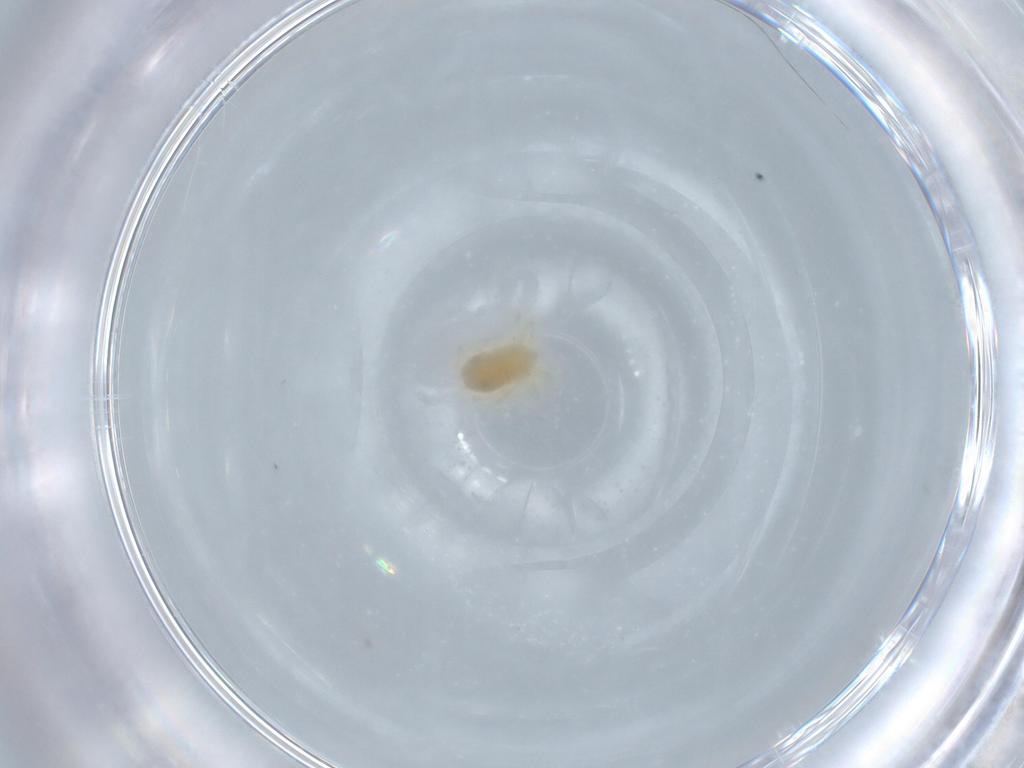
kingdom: Animalia
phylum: Arthropoda
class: Arachnida
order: Trombidiformes
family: Anystidae
